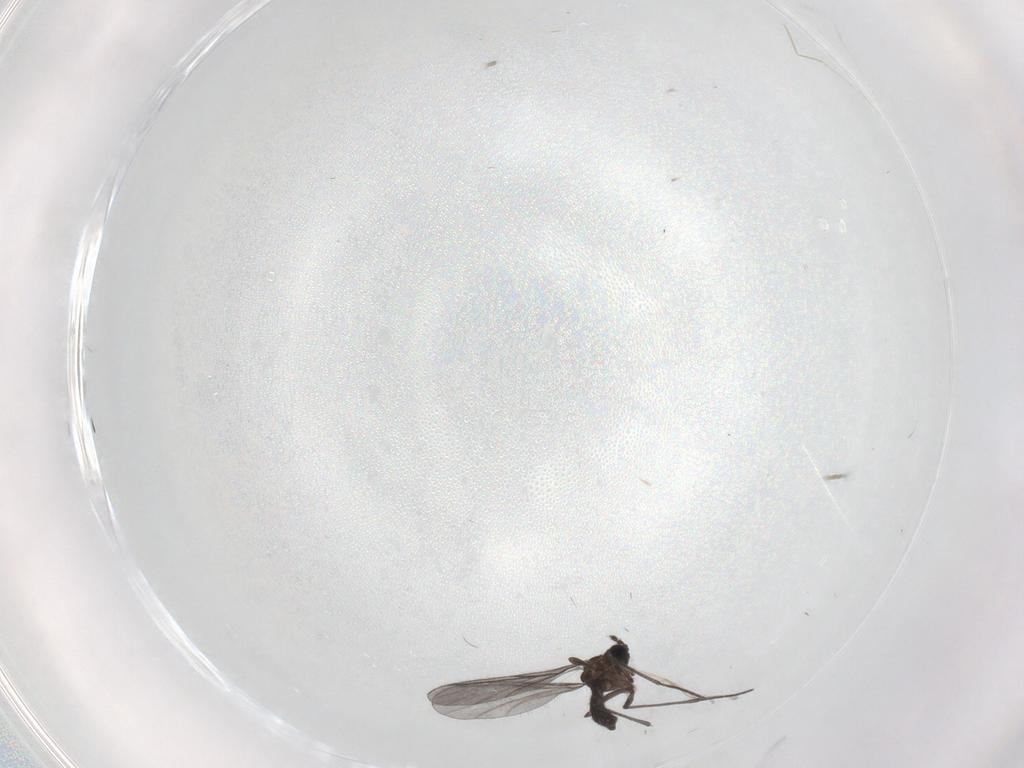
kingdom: Animalia
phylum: Arthropoda
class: Insecta
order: Diptera
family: Cecidomyiidae
